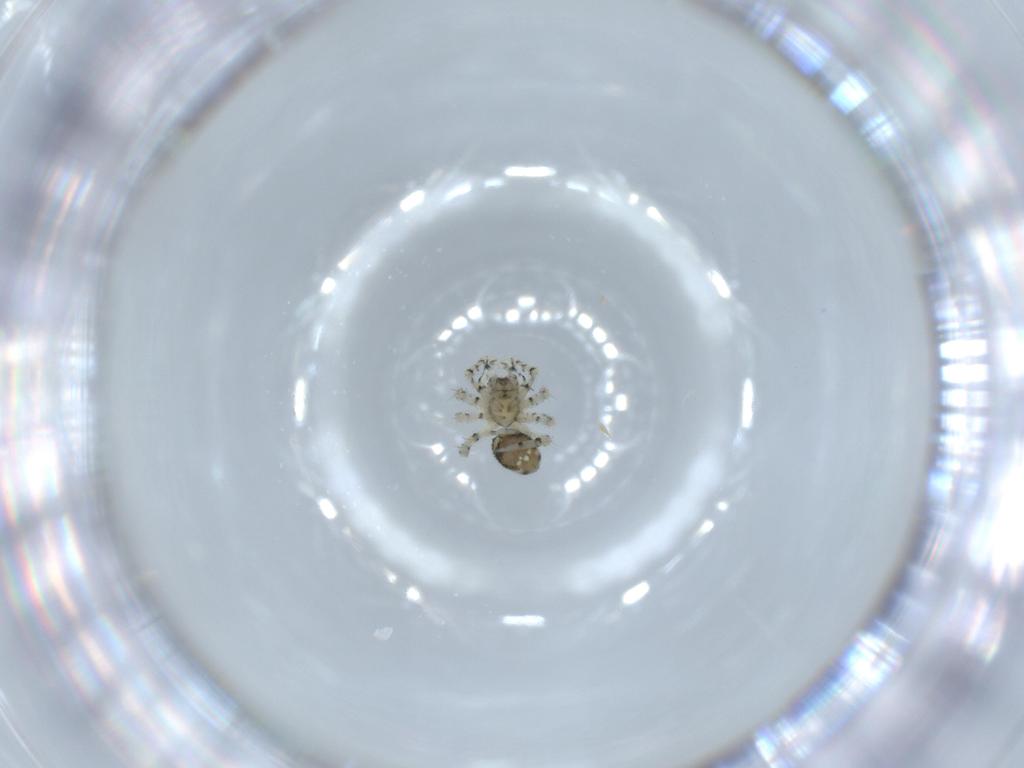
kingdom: Animalia
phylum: Arthropoda
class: Arachnida
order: Araneae
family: Theridiidae
